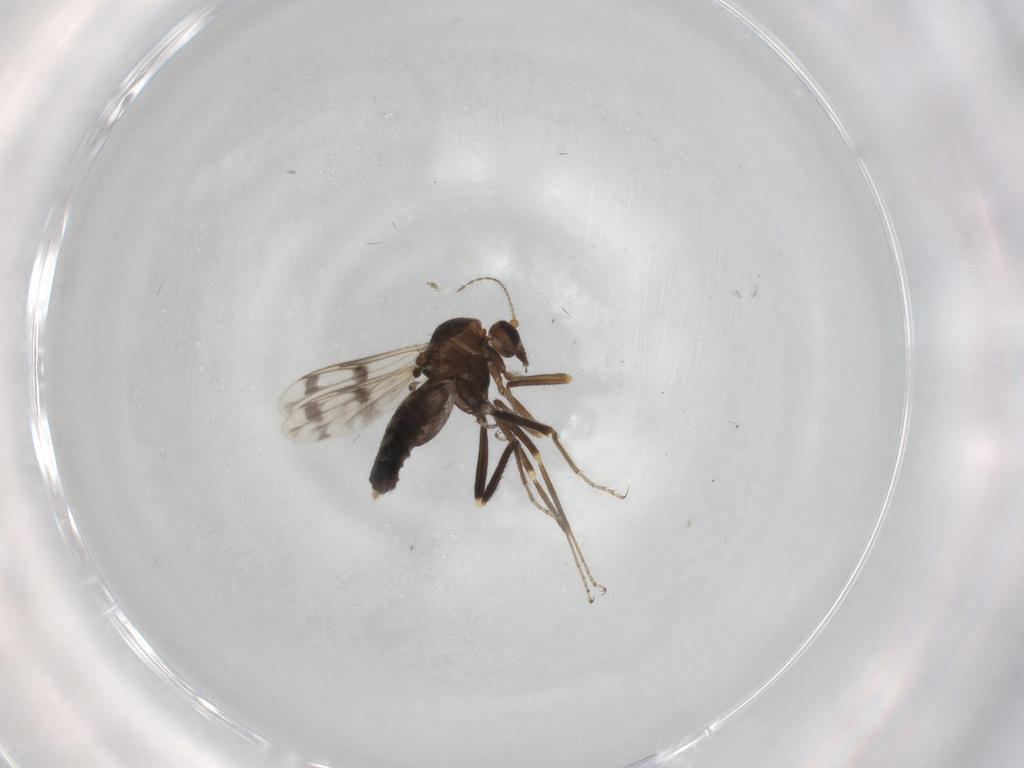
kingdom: Animalia
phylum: Arthropoda
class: Insecta
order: Diptera
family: Ceratopogonidae
